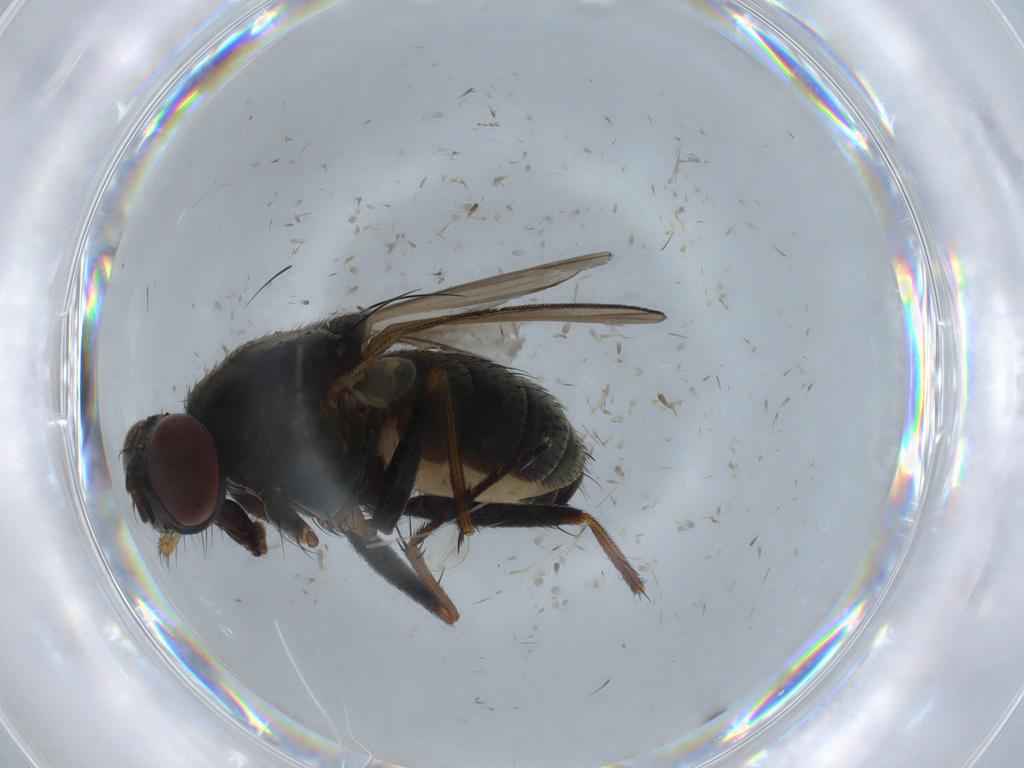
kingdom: Animalia
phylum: Arthropoda
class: Insecta
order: Diptera
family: Muscidae
